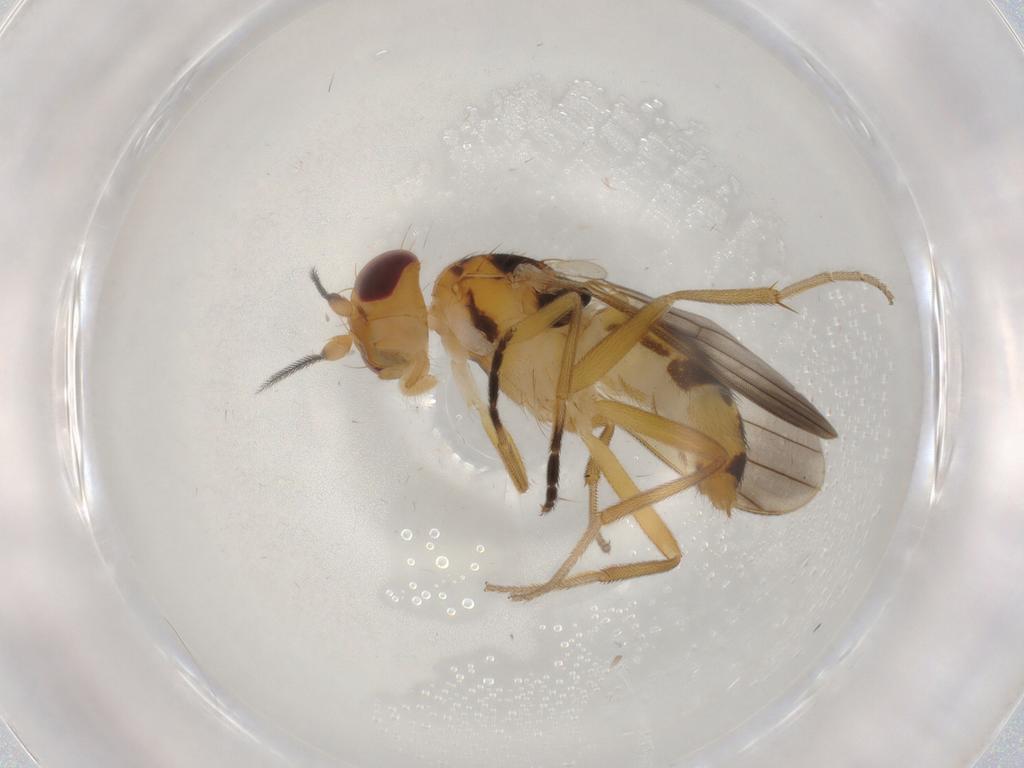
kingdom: Animalia
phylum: Arthropoda
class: Insecta
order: Diptera
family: Clusiidae
